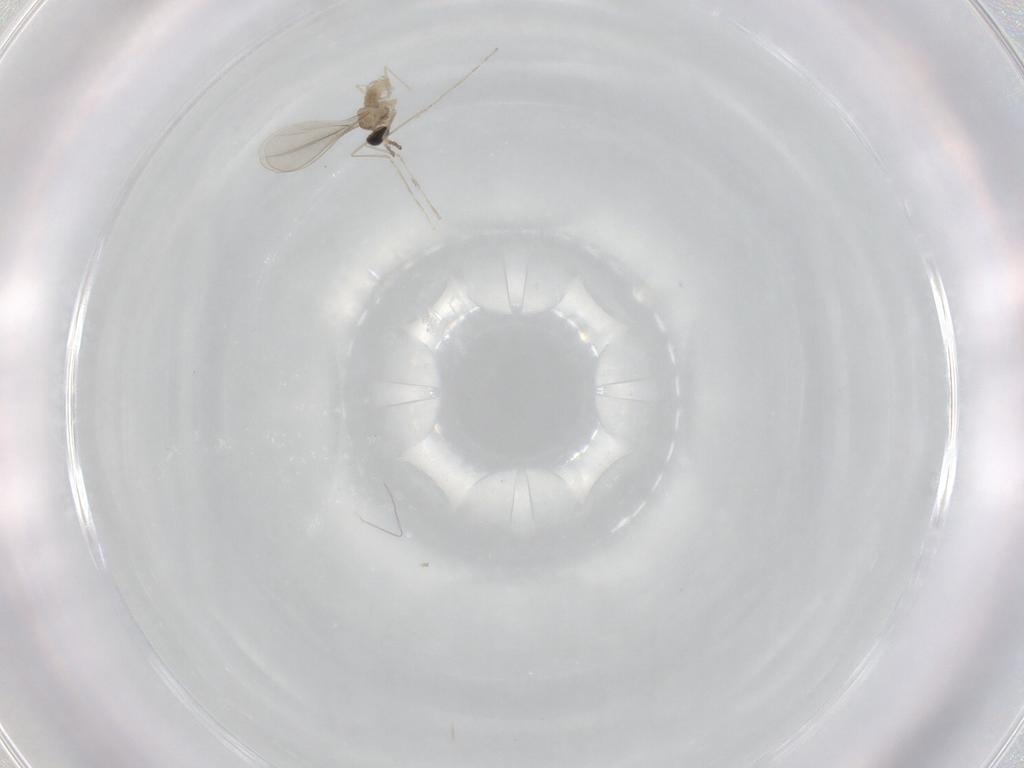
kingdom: Animalia
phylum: Arthropoda
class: Insecta
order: Diptera
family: Cecidomyiidae
